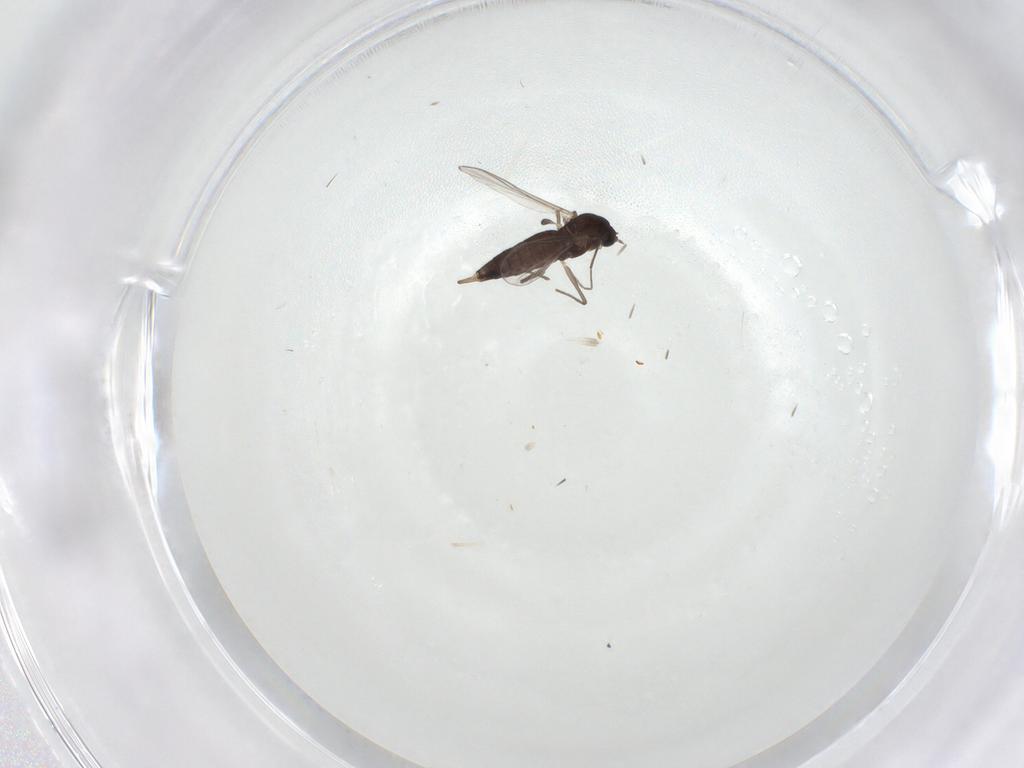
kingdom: Animalia
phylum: Arthropoda
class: Insecta
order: Diptera
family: Chironomidae
